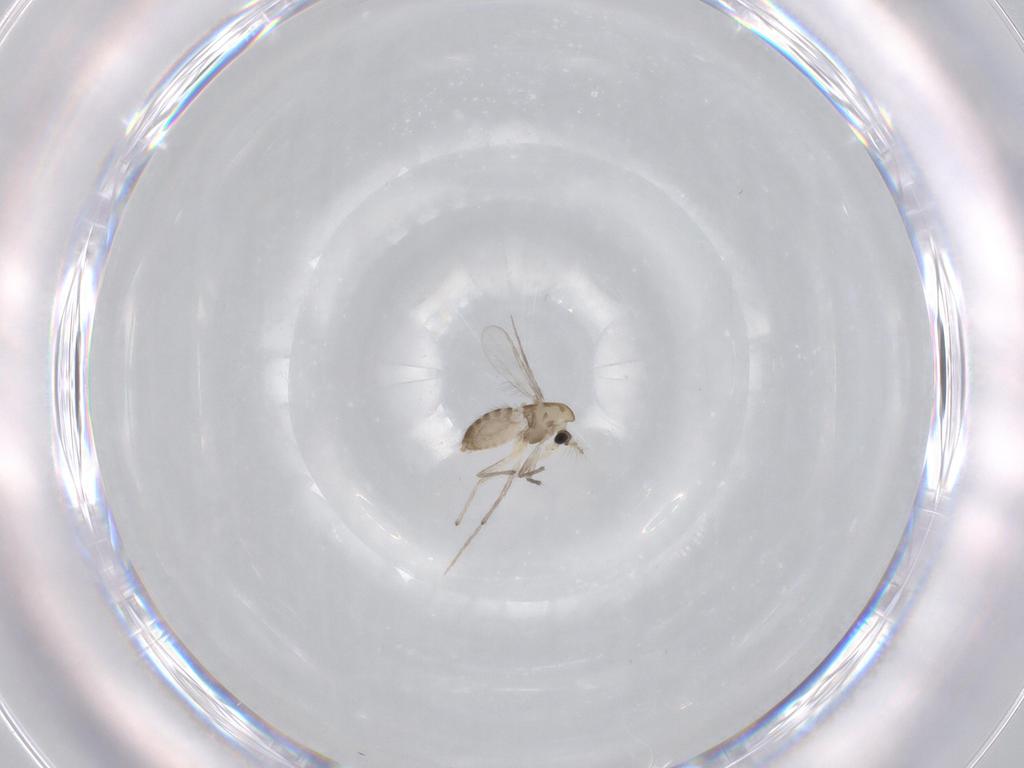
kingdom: Animalia
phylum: Arthropoda
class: Insecta
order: Diptera
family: Chironomidae
